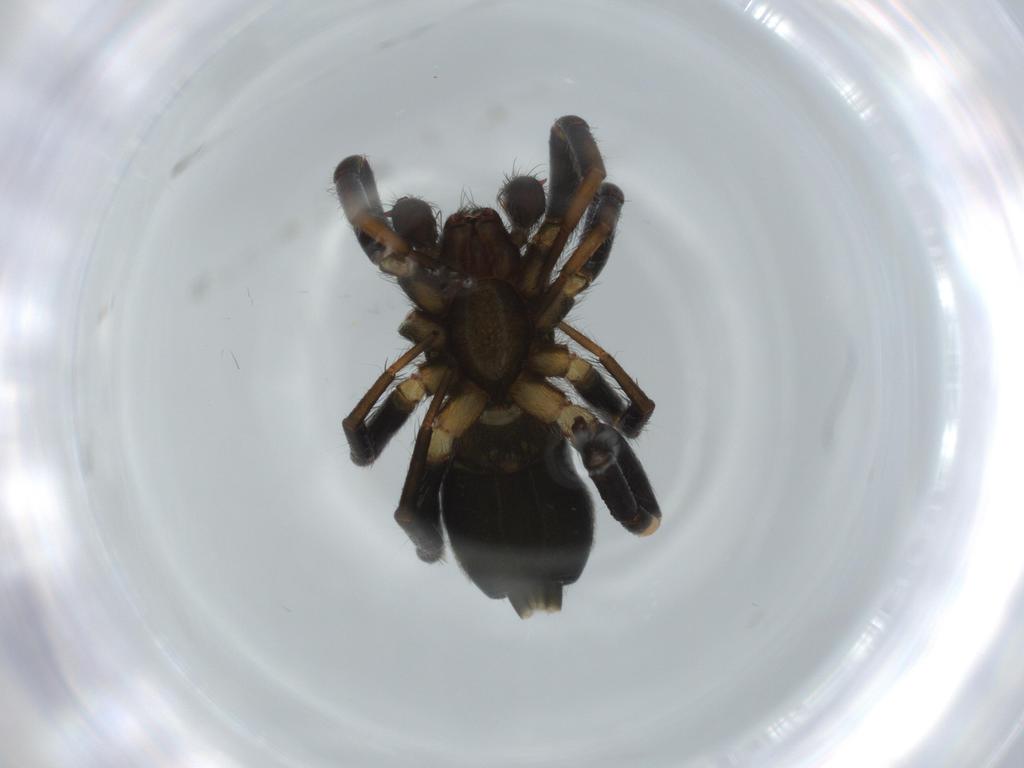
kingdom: Animalia
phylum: Arthropoda
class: Arachnida
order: Araneae
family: Gnaphosidae
